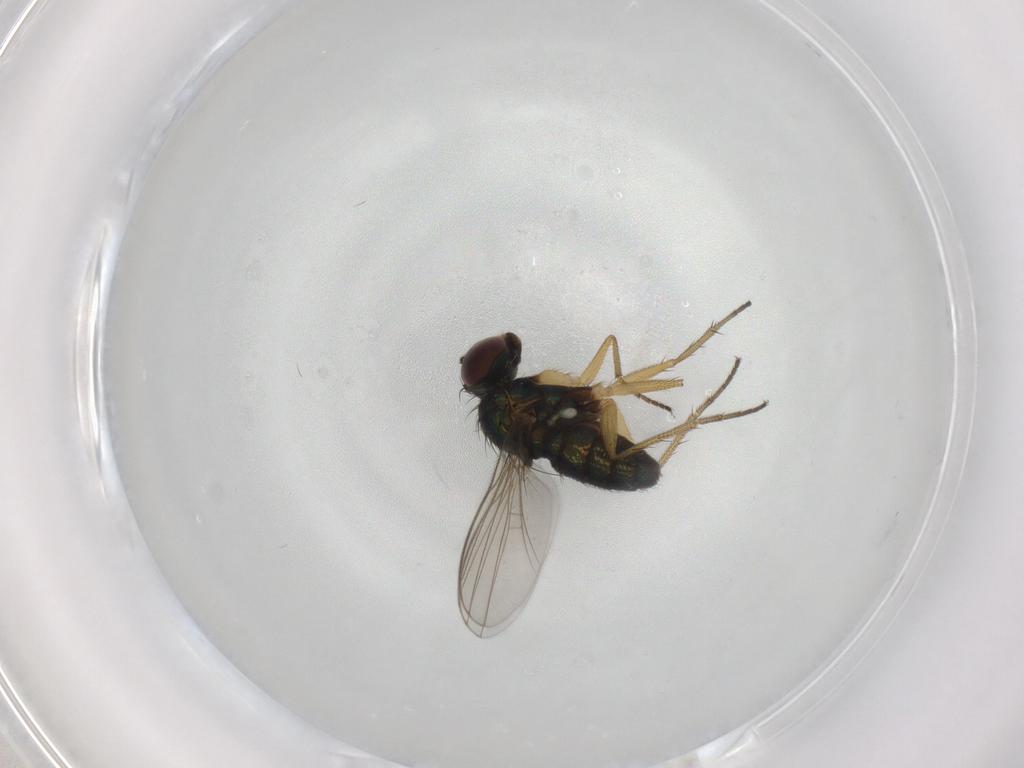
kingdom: Animalia
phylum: Arthropoda
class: Insecta
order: Diptera
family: Dolichopodidae
